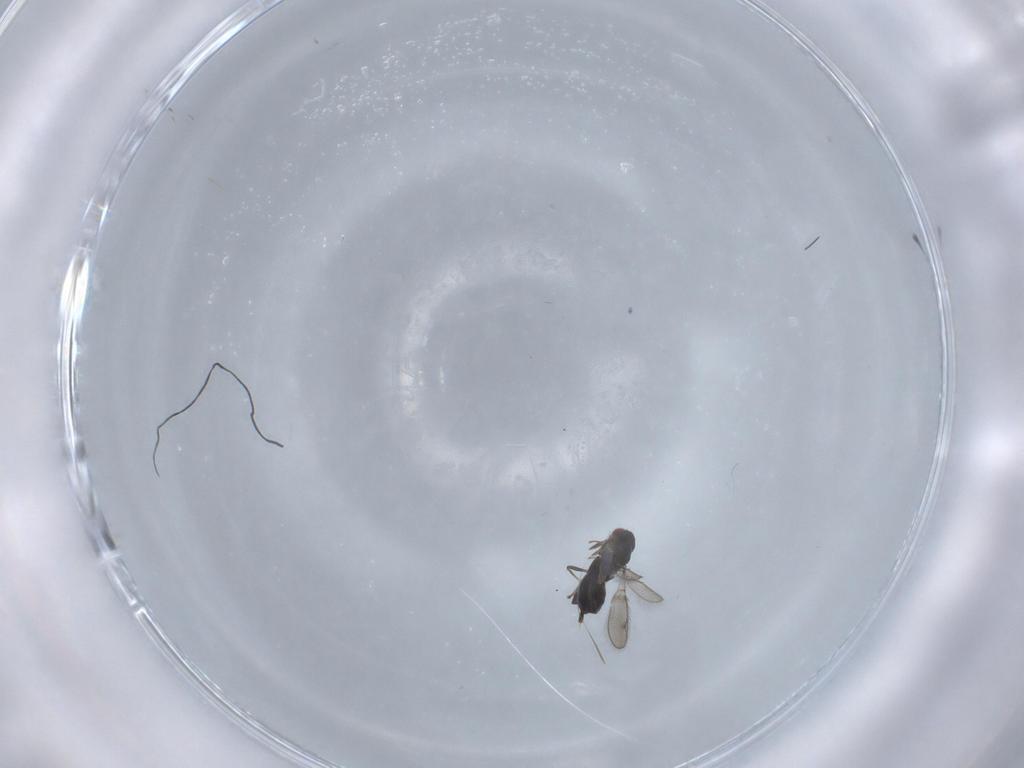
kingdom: Animalia
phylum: Arthropoda
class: Insecta
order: Hymenoptera
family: Pteromalidae
